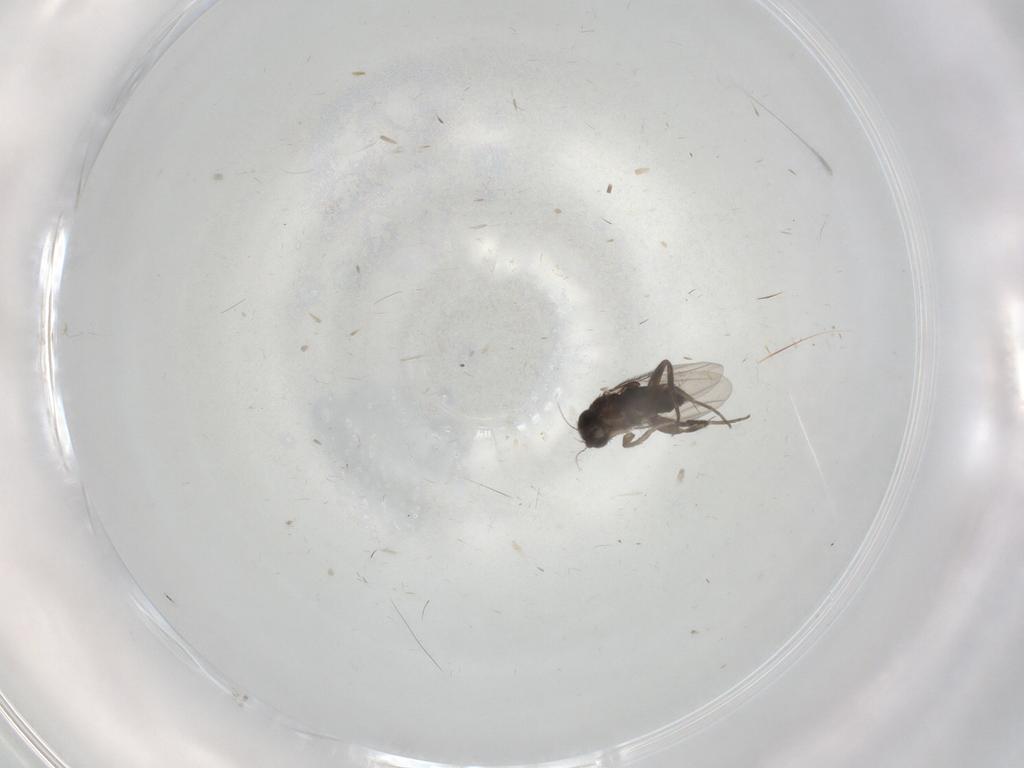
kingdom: Animalia
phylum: Arthropoda
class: Insecta
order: Diptera
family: Phoridae
